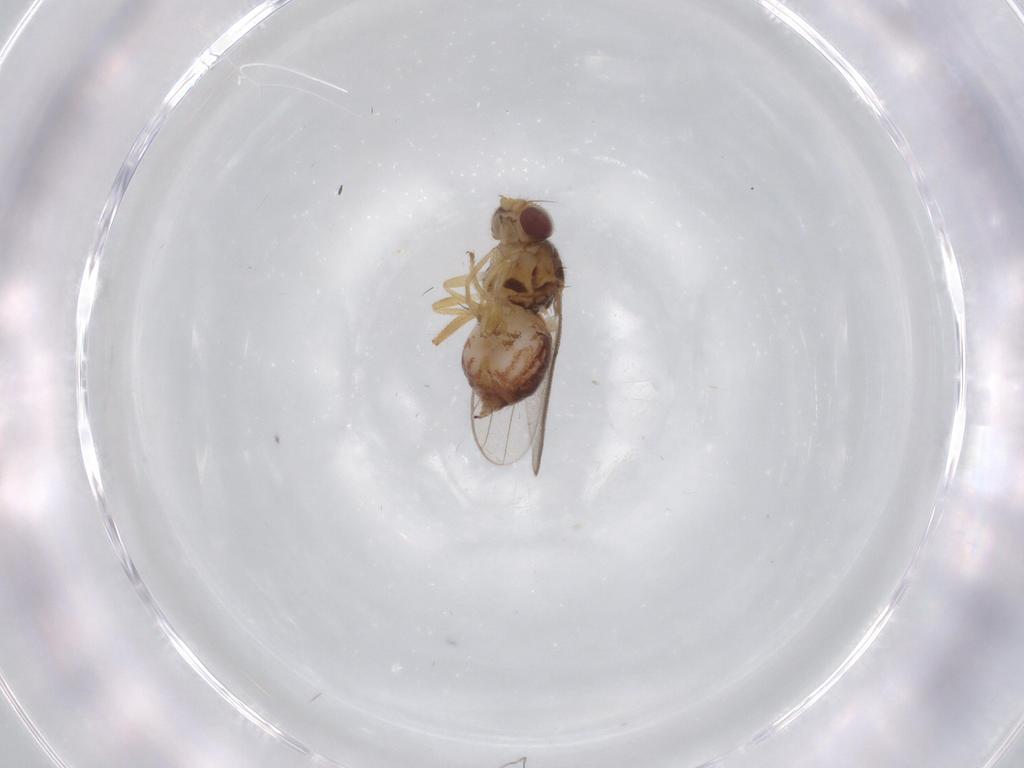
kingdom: Animalia
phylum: Arthropoda
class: Insecta
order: Diptera
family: Chloropidae
